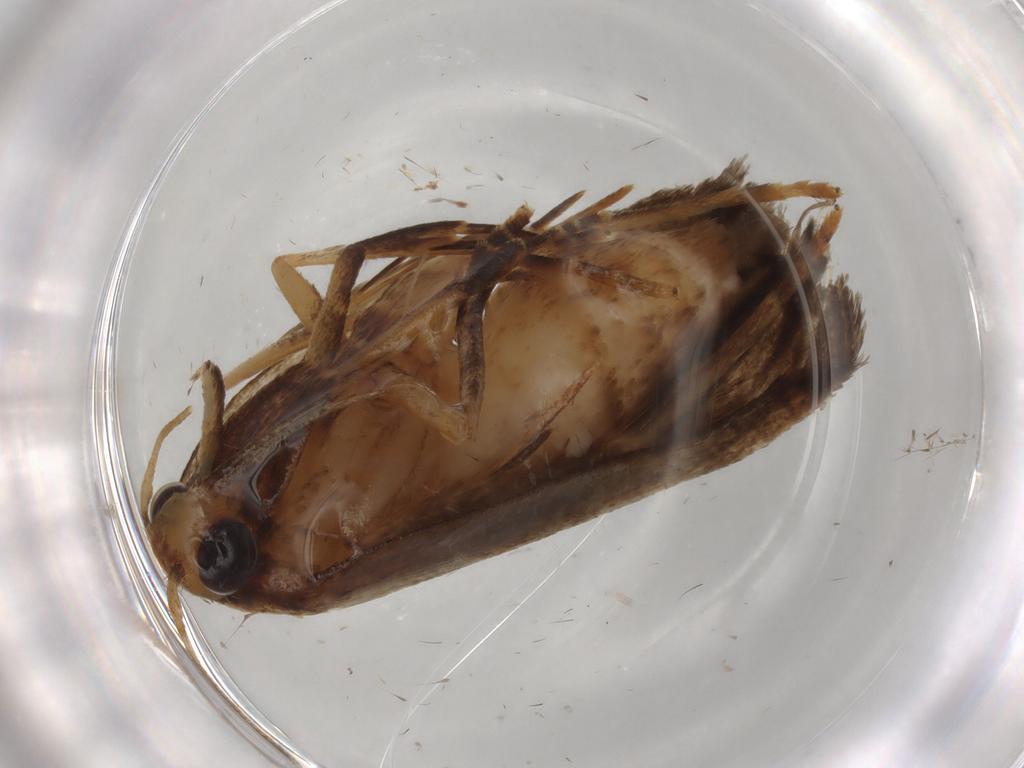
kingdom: Animalia
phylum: Arthropoda
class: Insecta
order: Lepidoptera
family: Autostichidae
